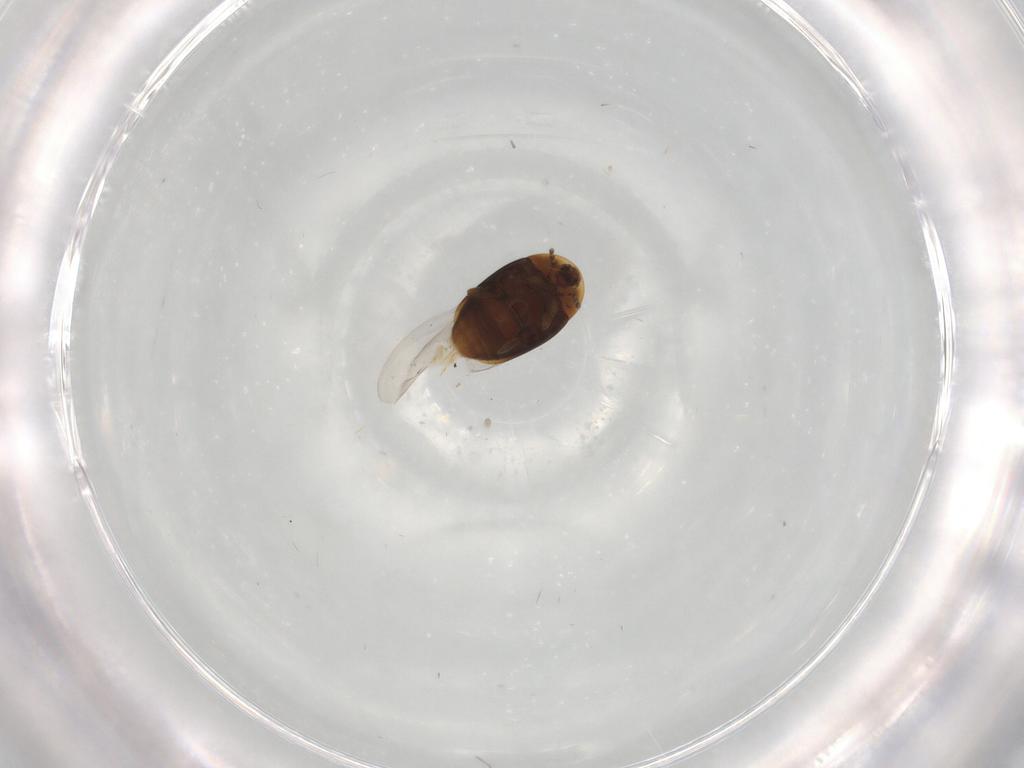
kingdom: Animalia
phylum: Arthropoda
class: Insecta
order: Coleoptera
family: Corylophidae
